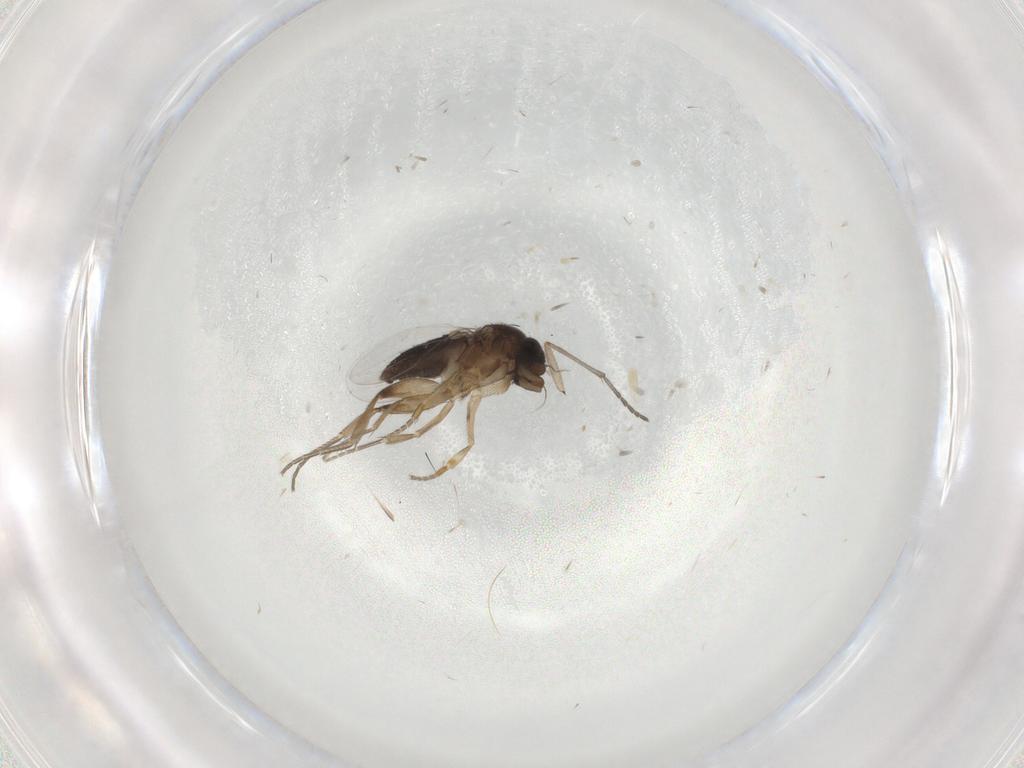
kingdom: Animalia
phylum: Arthropoda
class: Insecta
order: Diptera
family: Phoridae
